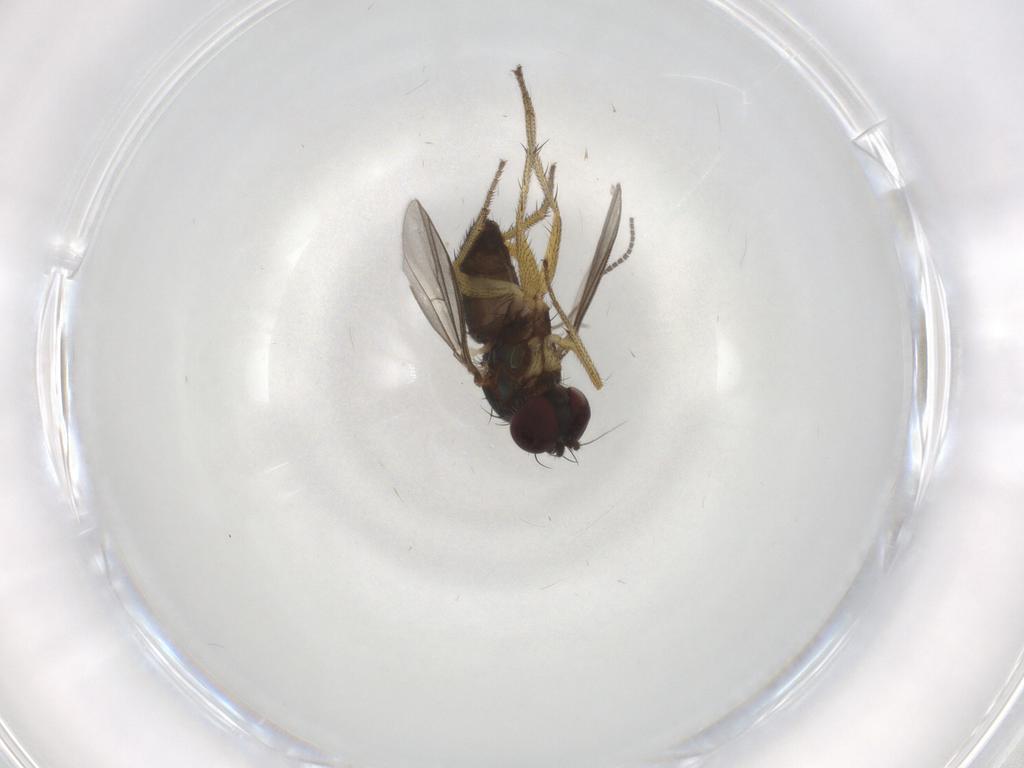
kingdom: Animalia
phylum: Arthropoda
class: Insecta
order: Diptera
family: Sciaridae
